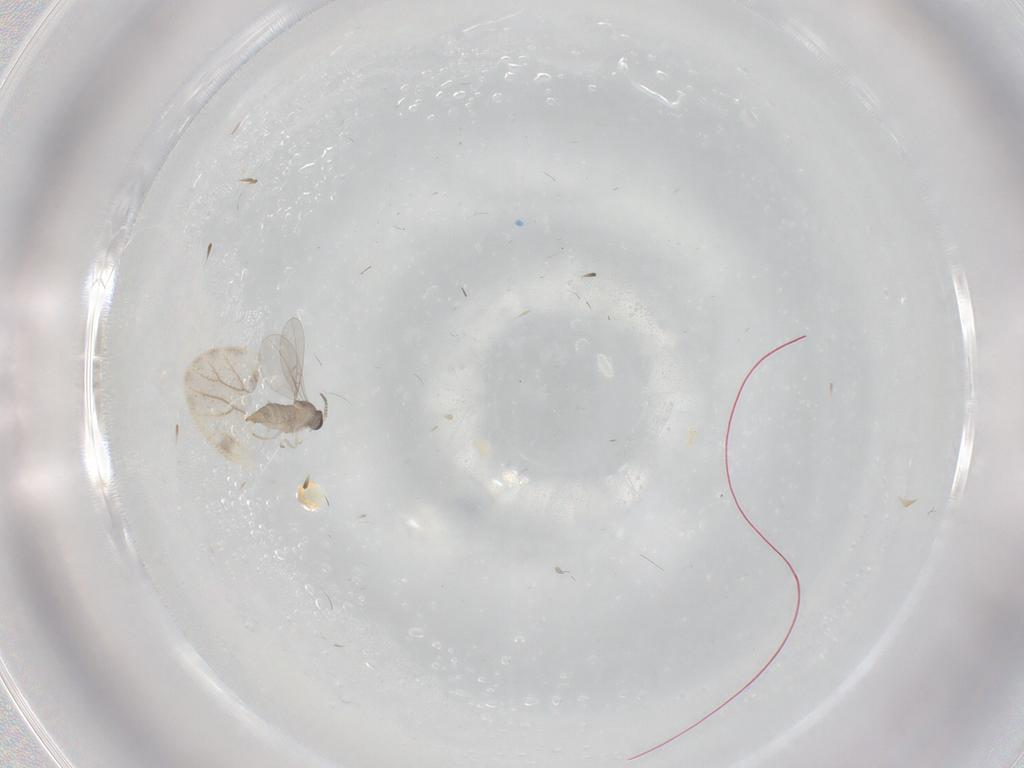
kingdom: Animalia
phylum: Arthropoda
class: Insecta
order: Diptera
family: Cecidomyiidae
